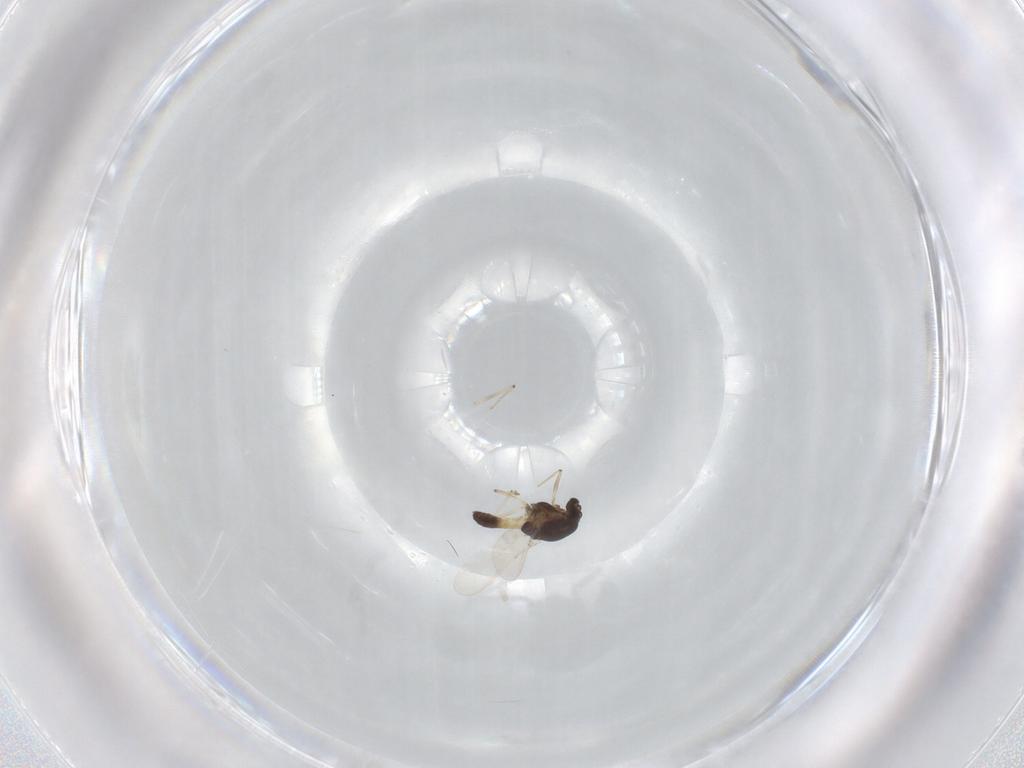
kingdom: Animalia
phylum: Arthropoda
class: Insecta
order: Diptera
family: Chironomidae
